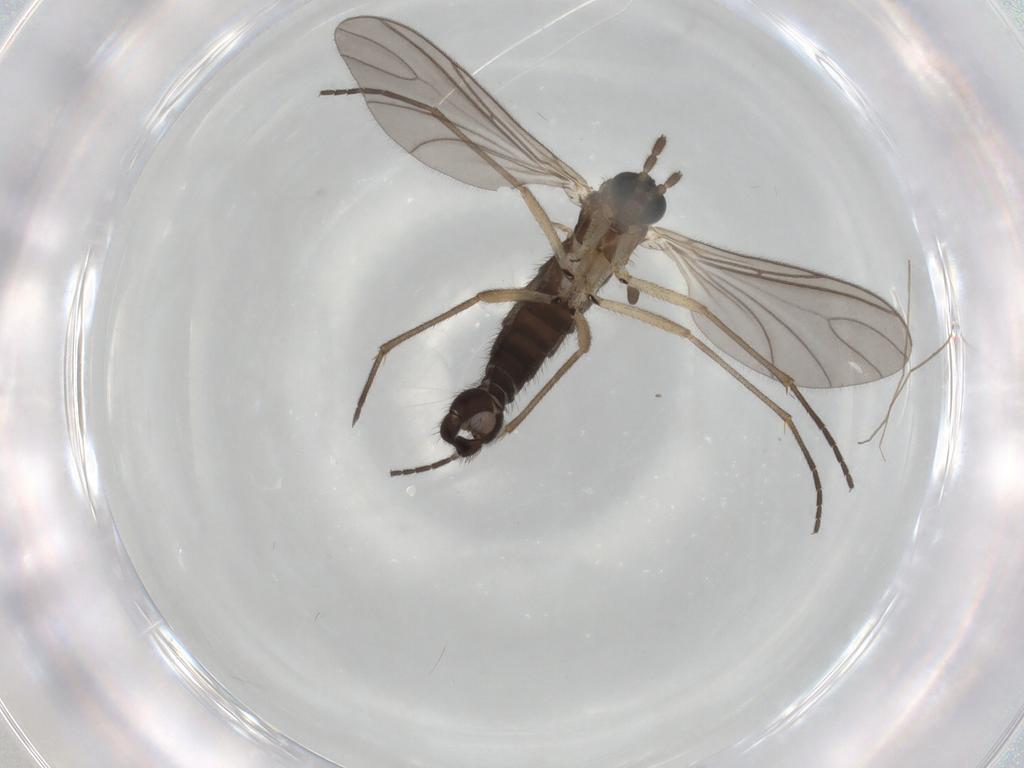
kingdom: Animalia
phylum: Arthropoda
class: Insecta
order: Diptera
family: Sciaridae
